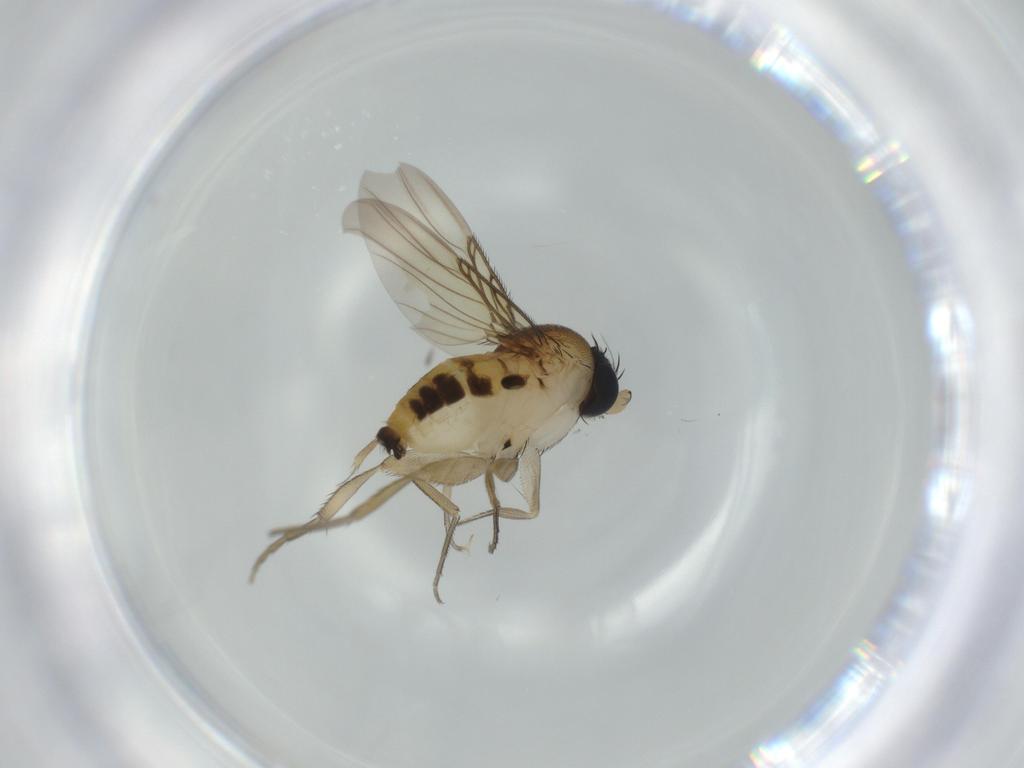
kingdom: Animalia
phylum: Arthropoda
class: Insecta
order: Diptera
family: Phoridae
